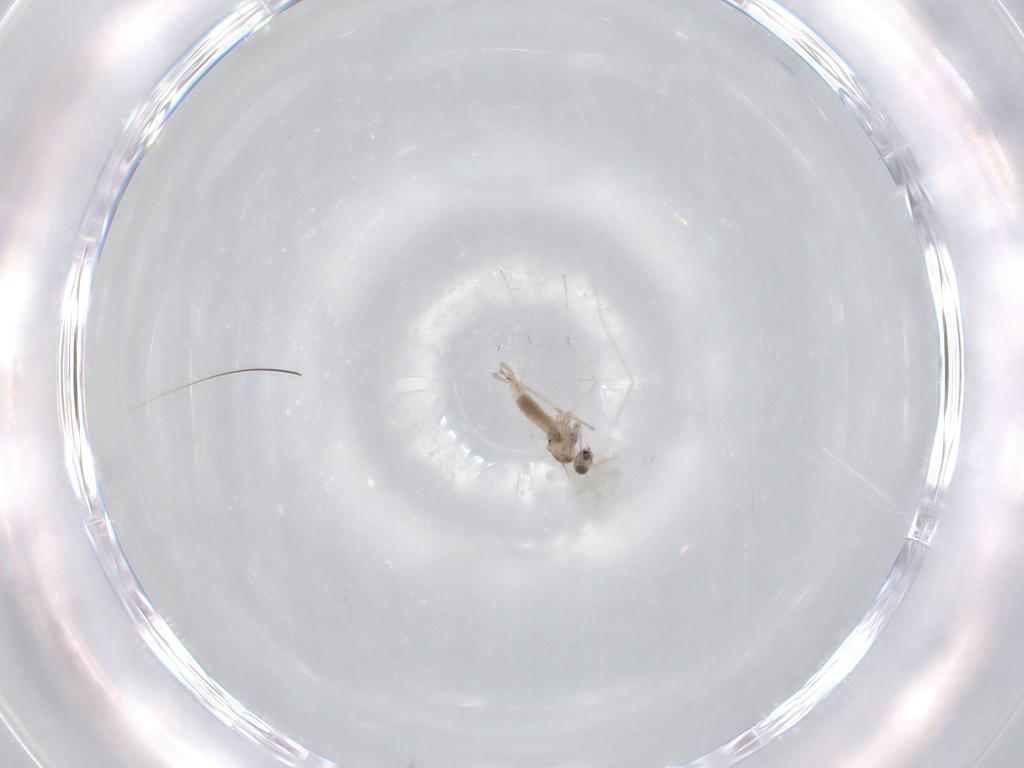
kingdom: Animalia
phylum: Arthropoda
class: Insecta
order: Diptera
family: Cecidomyiidae
